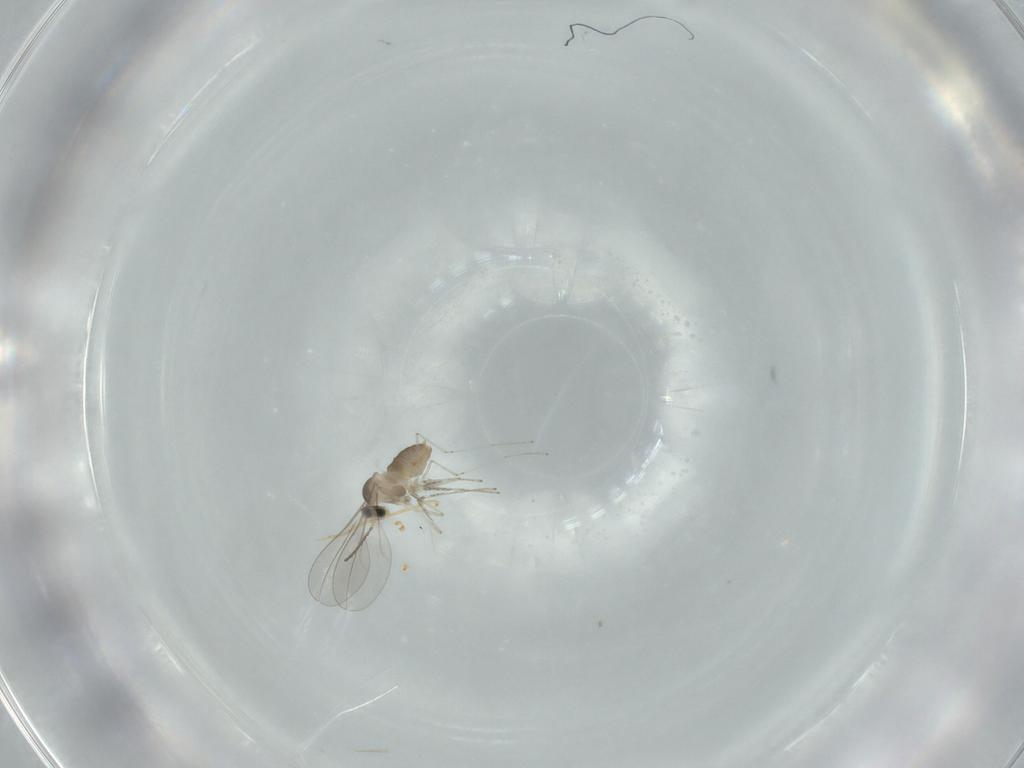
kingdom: Animalia
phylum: Arthropoda
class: Insecta
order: Diptera
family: Cecidomyiidae
